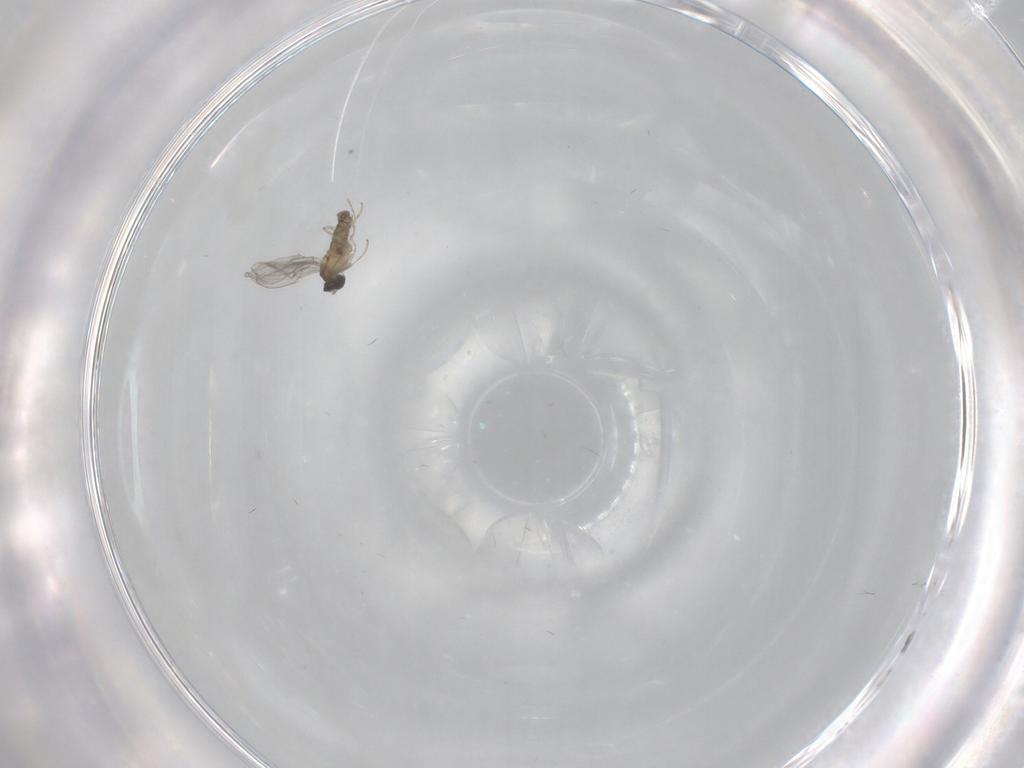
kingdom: Animalia
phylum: Arthropoda
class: Insecta
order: Diptera
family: Cecidomyiidae
